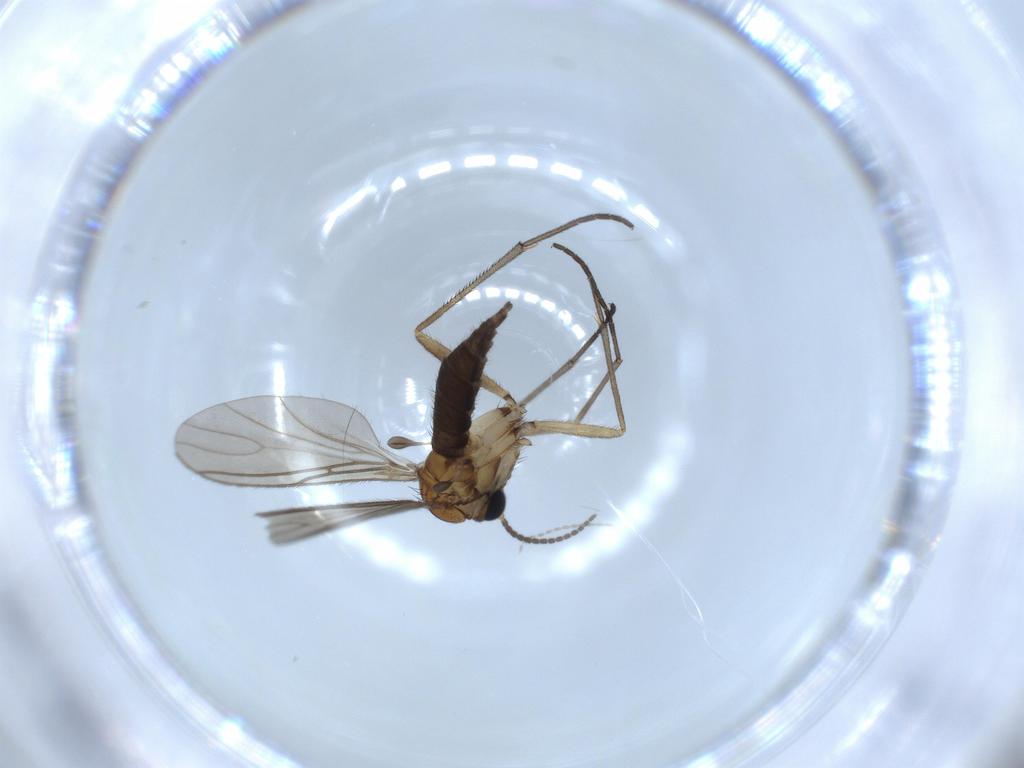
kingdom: Animalia
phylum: Arthropoda
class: Insecta
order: Diptera
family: Sciaridae
